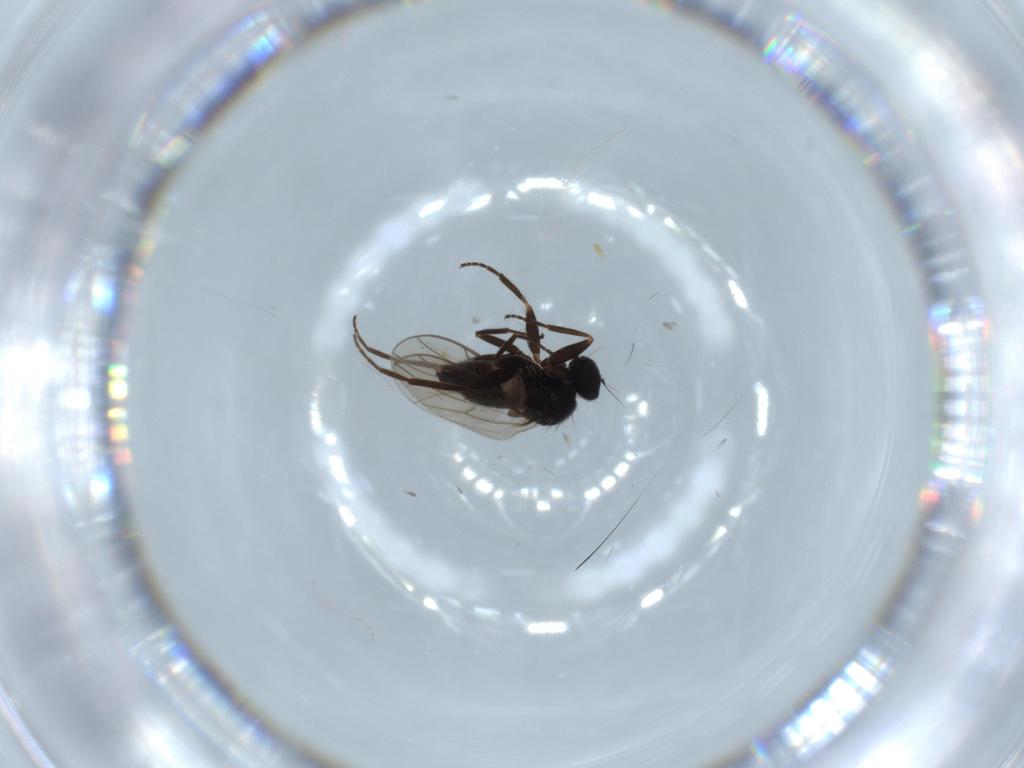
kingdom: Animalia
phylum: Arthropoda
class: Insecta
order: Diptera
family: Hybotidae
